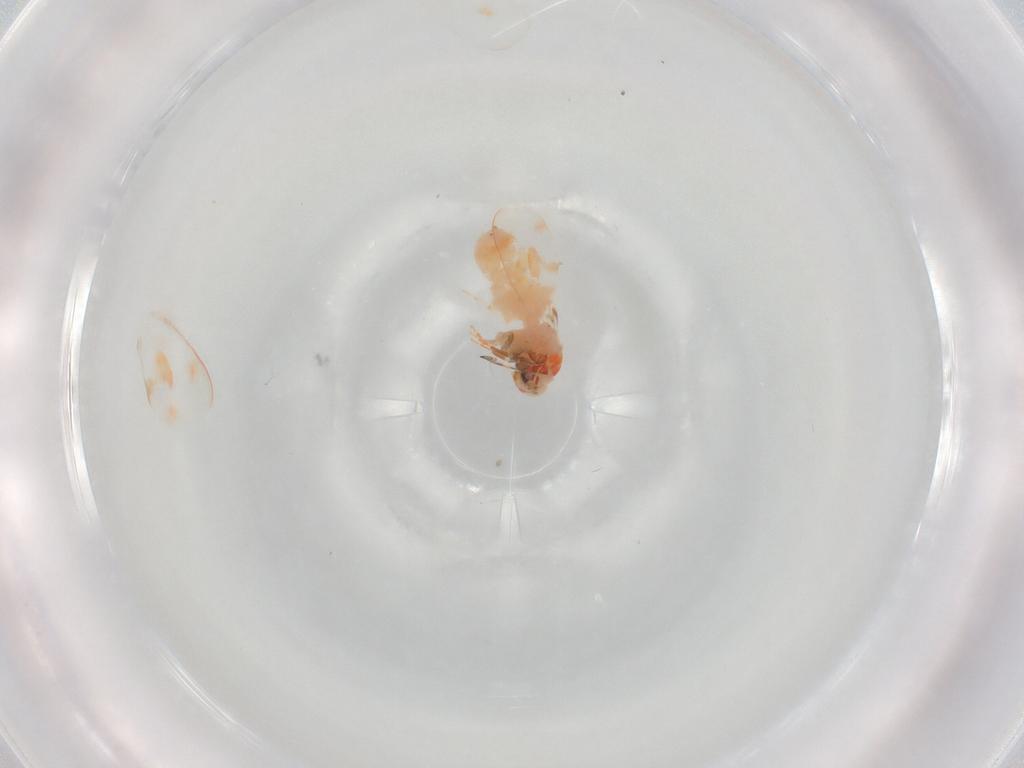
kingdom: Animalia
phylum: Arthropoda
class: Insecta
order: Hemiptera
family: Aleyrodidae
